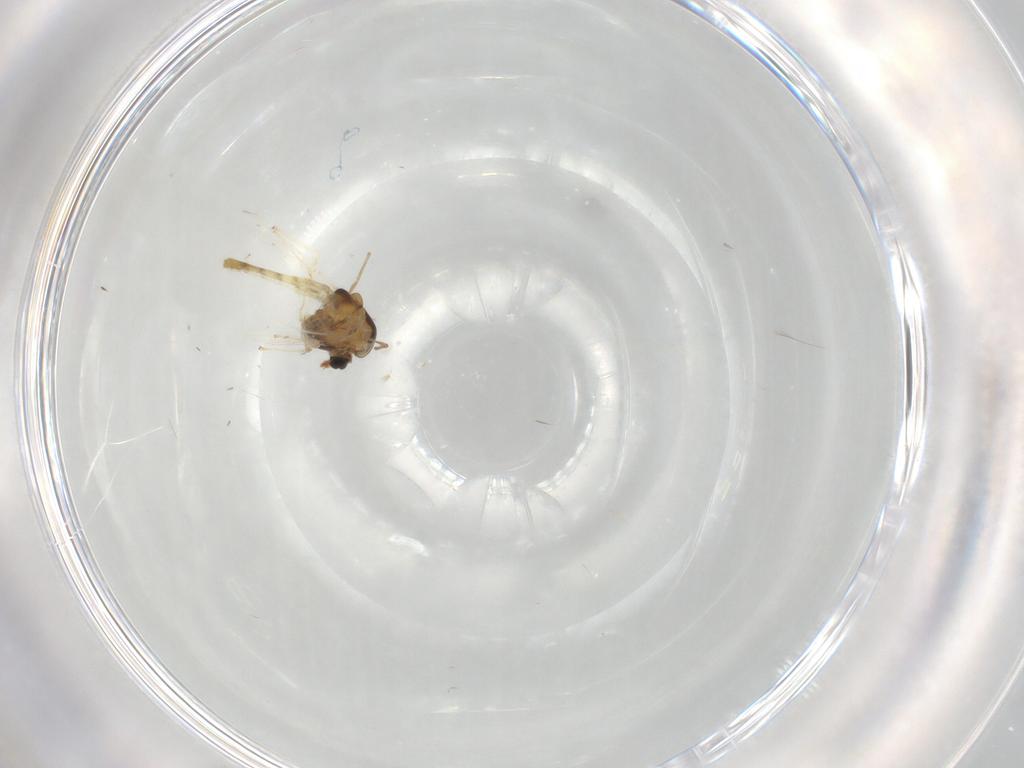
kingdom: Animalia
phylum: Arthropoda
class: Insecta
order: Diptera
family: Chironomidae
